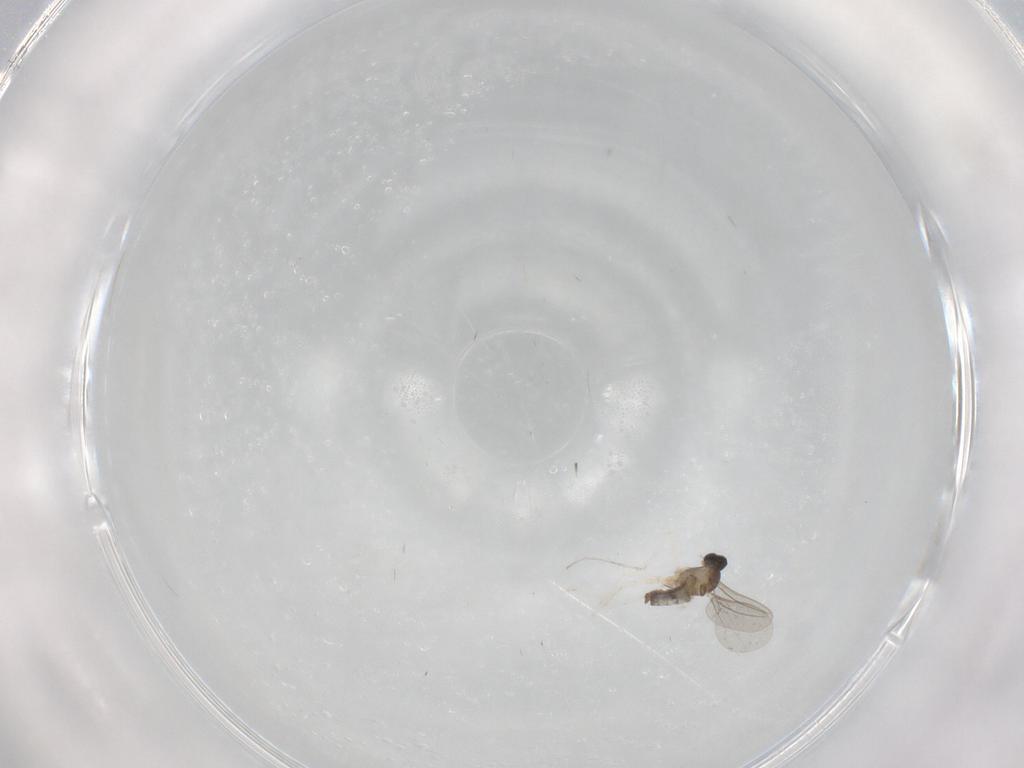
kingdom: Animalia
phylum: Arthropoda
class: Insecta
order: Diptera
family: Cecidomyiidae
